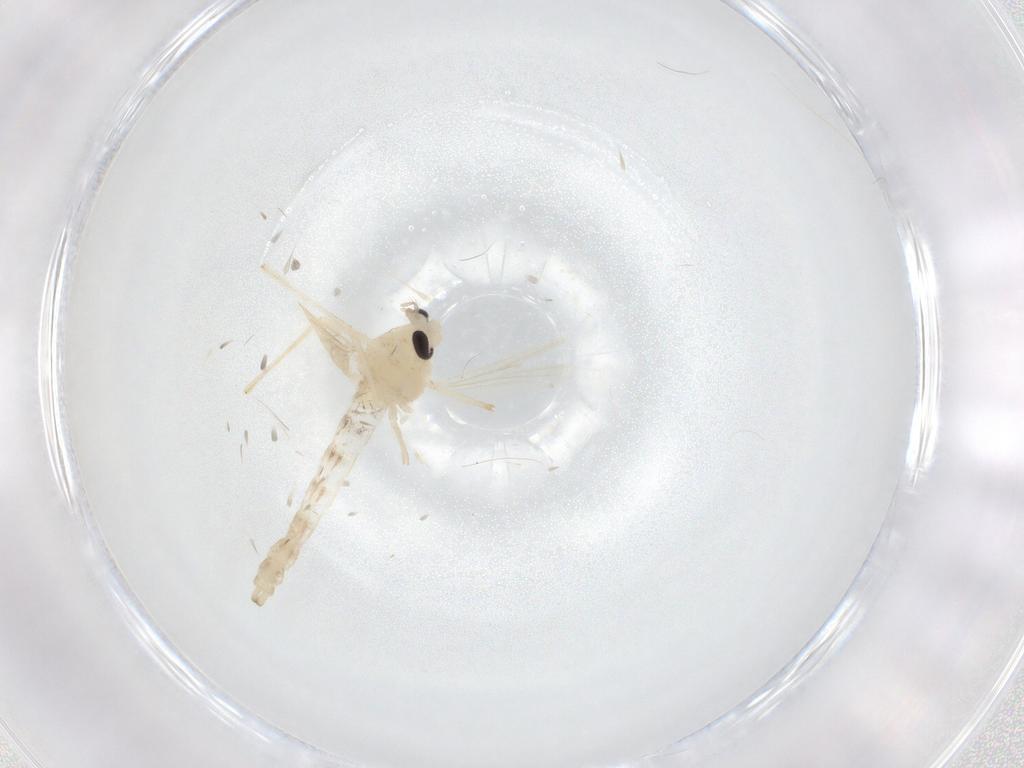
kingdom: Animalia
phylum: Arthropoda
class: Insecta
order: Diptera
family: Chironomidae
